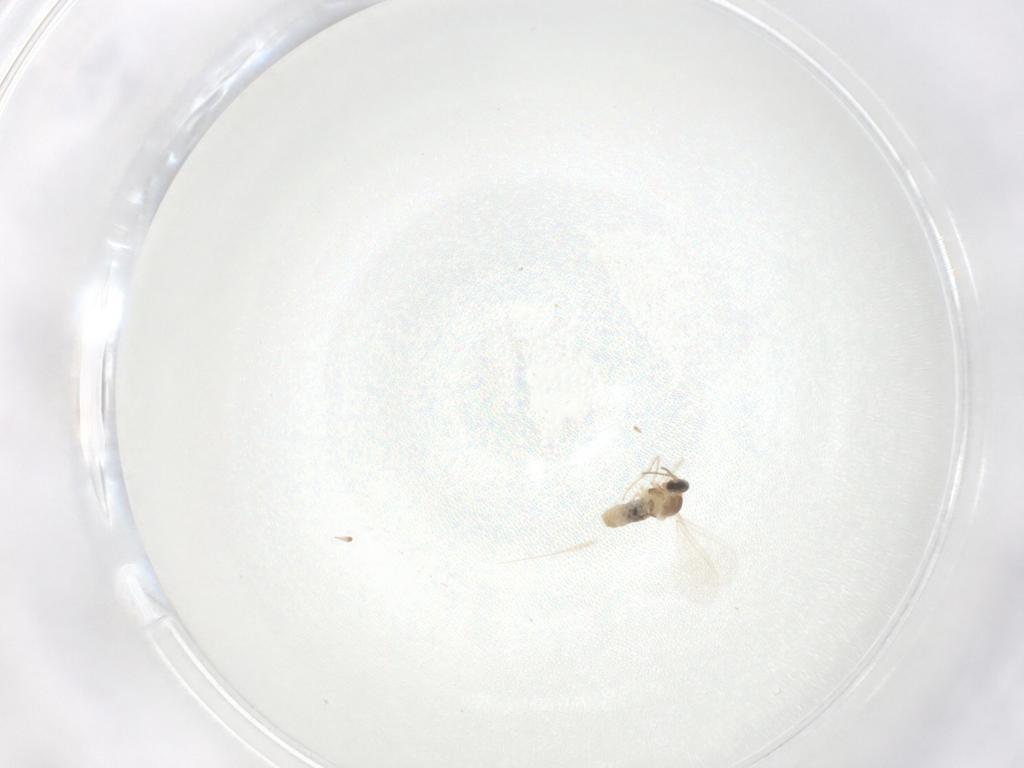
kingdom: Animalia
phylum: Arthropoda
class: Insecta
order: Diptera
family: Cecidomyiidae
